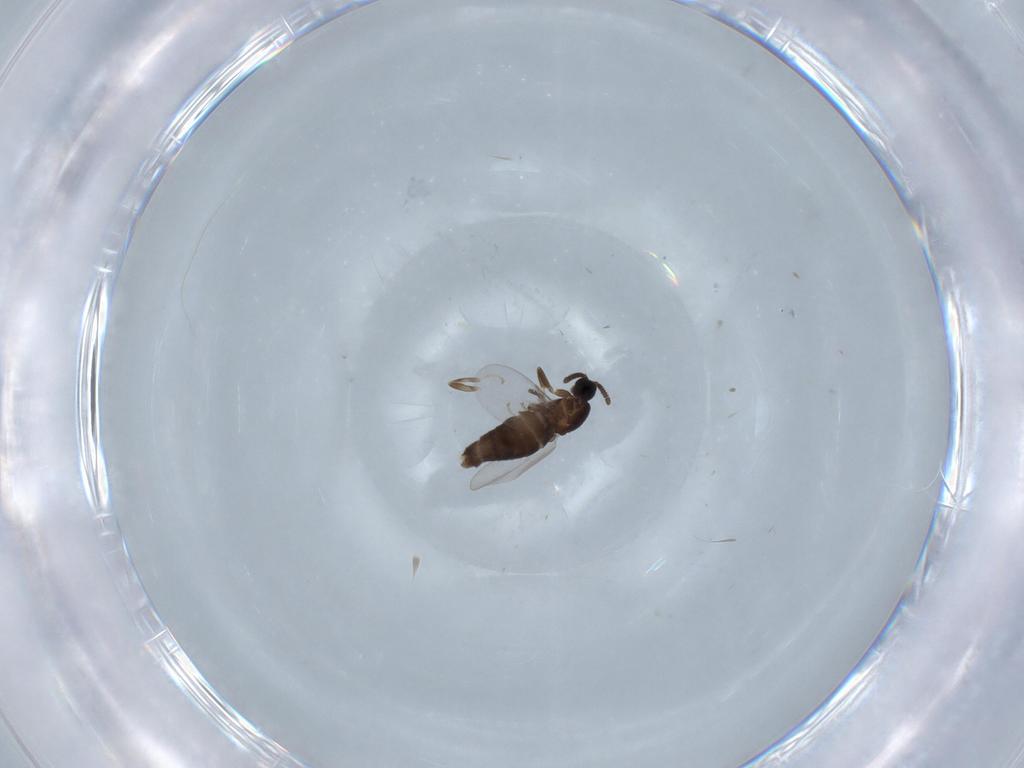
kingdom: Animalia
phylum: Arthropoda
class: Insecta
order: Diptera
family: Scatopsidae
